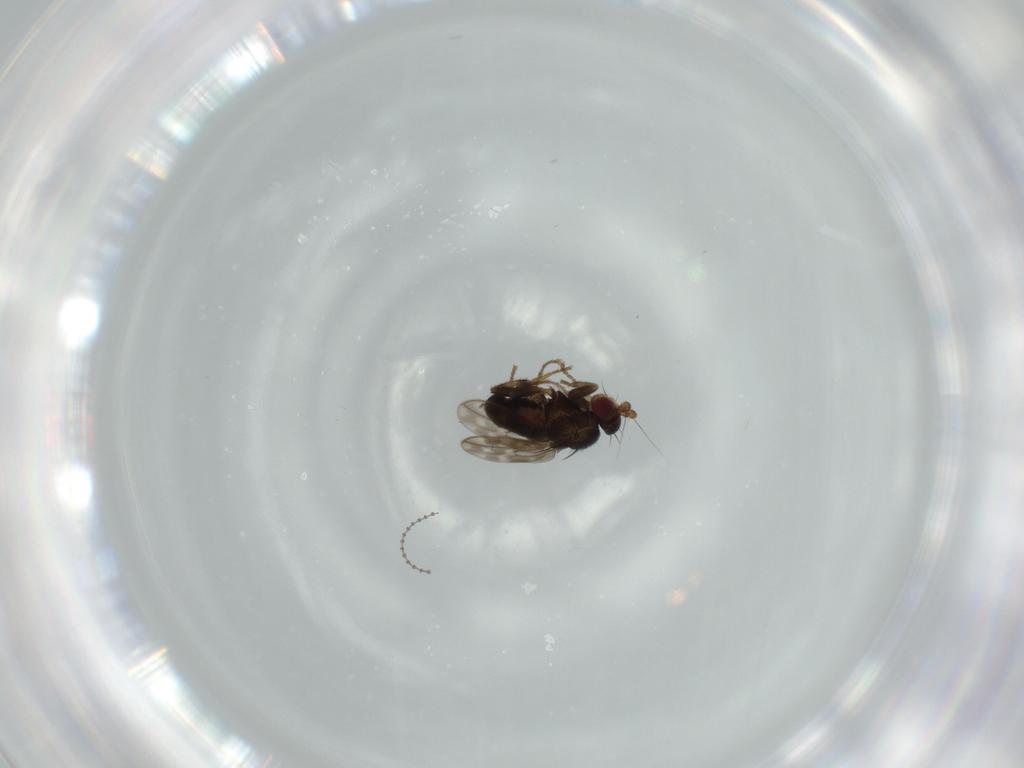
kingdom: Animalia
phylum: Arthropoda
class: Insecta
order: Diptera
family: Sphaeroceridae
